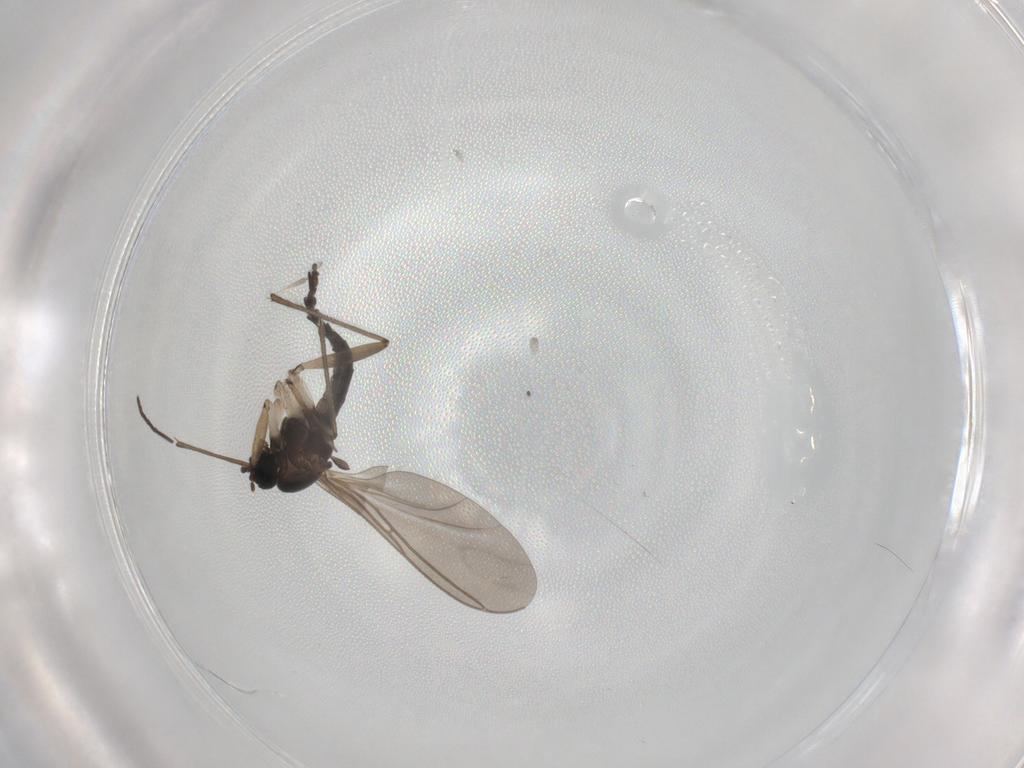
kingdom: Animalia
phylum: Arthropoda
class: Insecta
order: Diptera
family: Sciaridae
